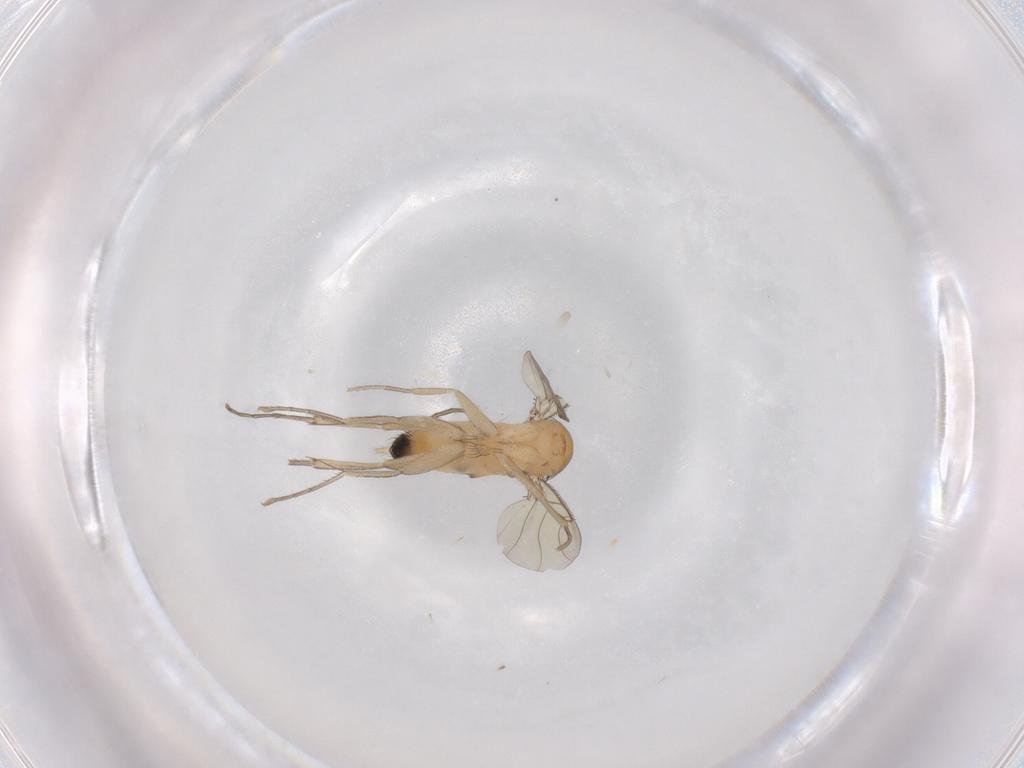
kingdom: Animalia
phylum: Arthropoda
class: Insecta
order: Diptera
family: Phoridae
